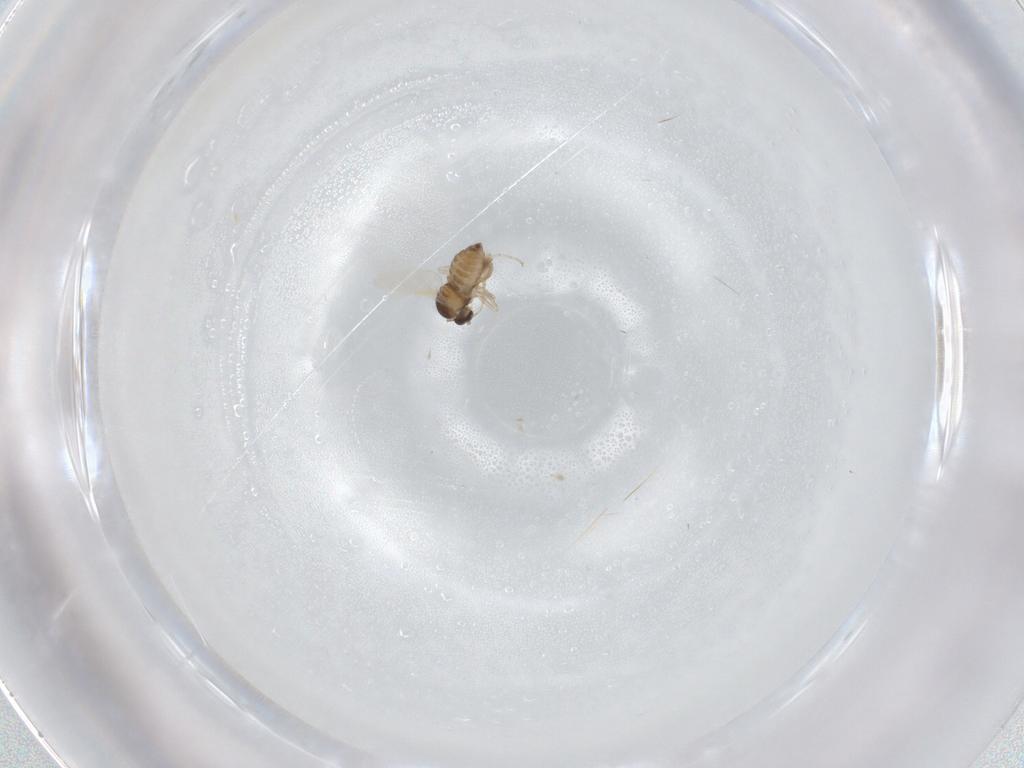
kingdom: Animalia
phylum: Arthropoda
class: Insecta
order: Diptera
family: Cecidomyiidae
